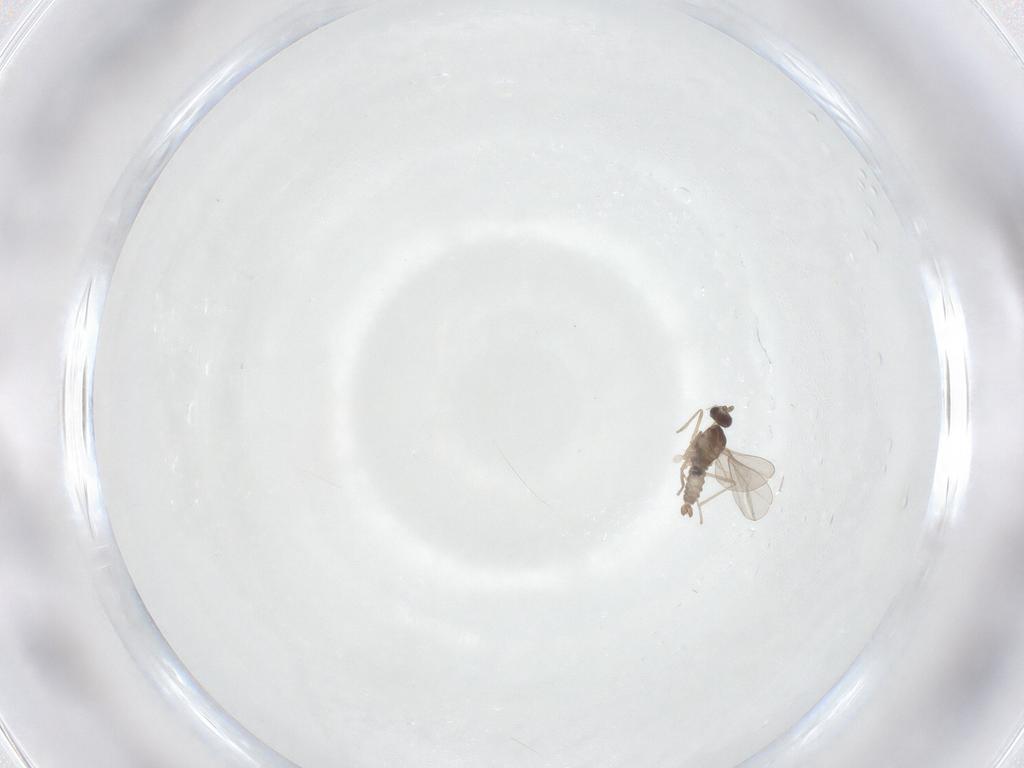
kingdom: Animalia
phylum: Arthropoda
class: Insecta
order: Diptera
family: Cecidomyiidae
